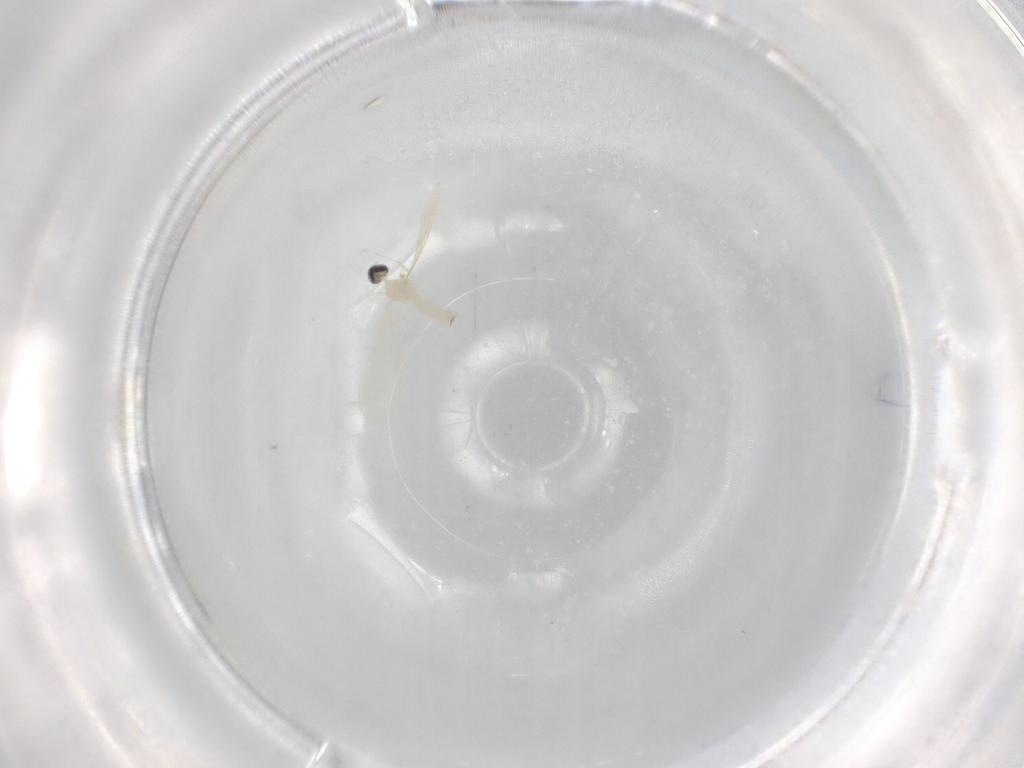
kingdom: Animalia
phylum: Arthropoda
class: Insecta
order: Diptera
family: Cecidomyiidae
